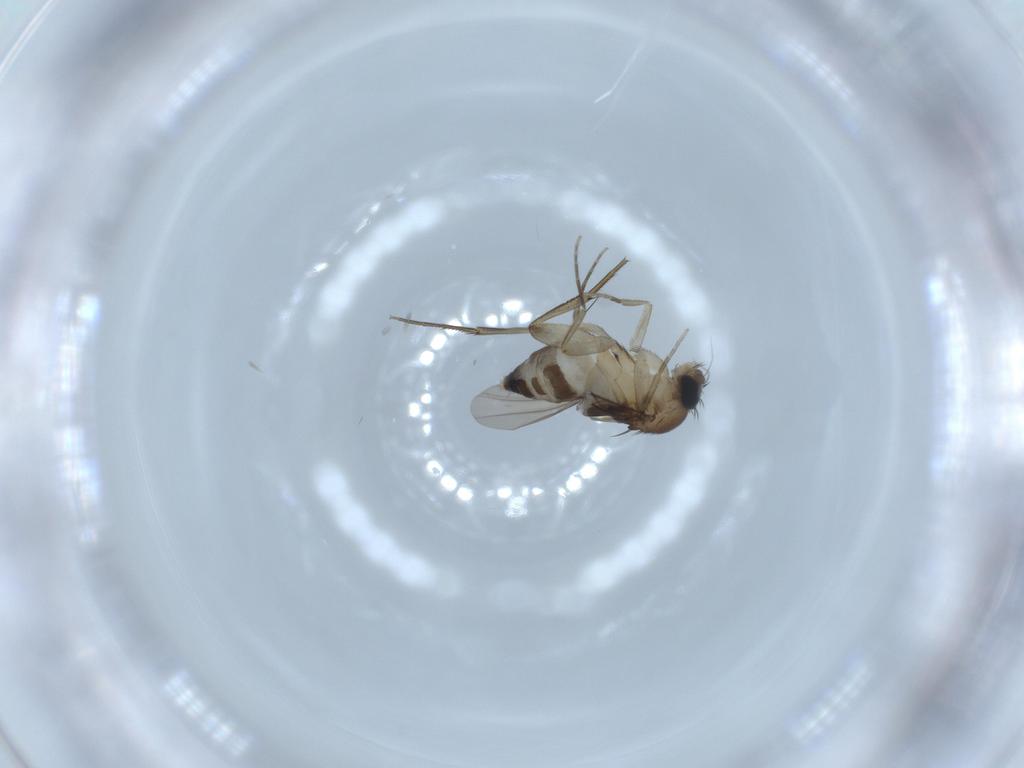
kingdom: Animalia
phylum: Arthropoda
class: Insecta
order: Diptera
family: Phoridae
